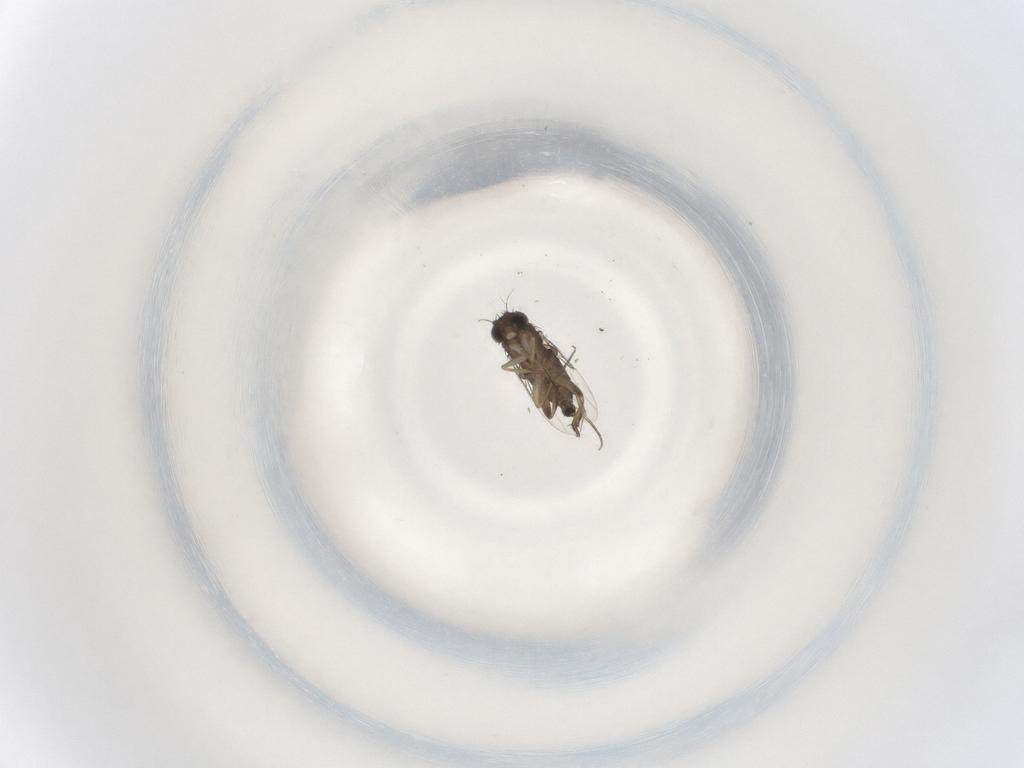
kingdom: Animalia
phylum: Arthropoda
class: Insecta
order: Diptera
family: Phoridae
